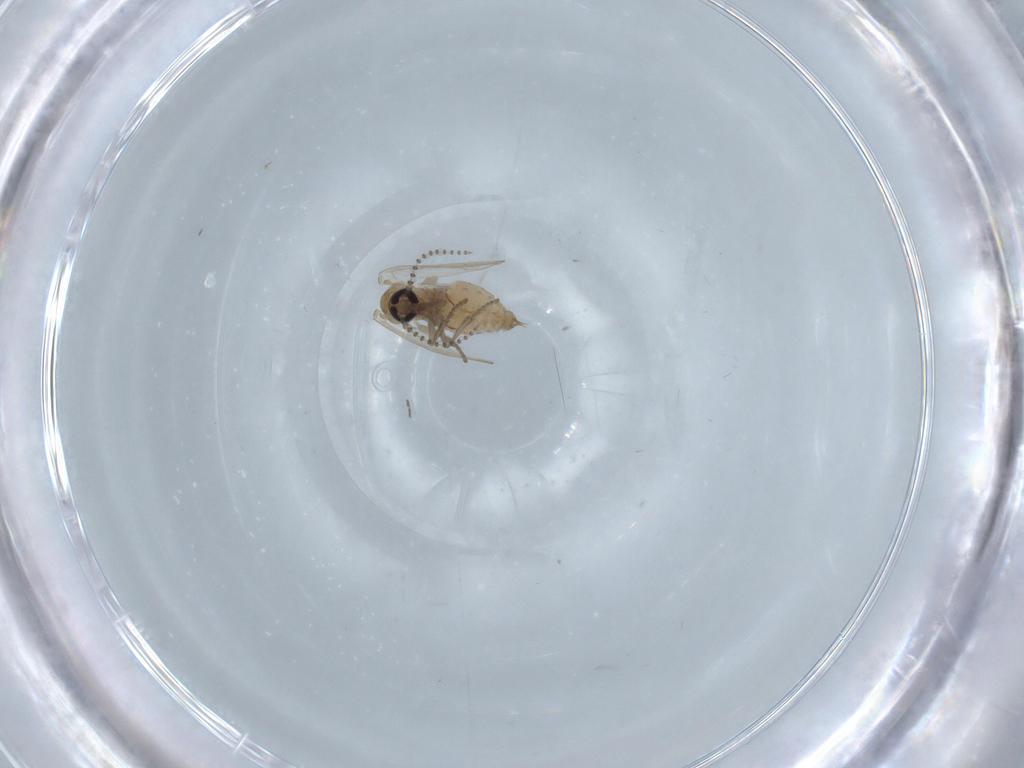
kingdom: Animalia
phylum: Arthropoda
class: Insecta
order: Diptera
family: Psychodidae
